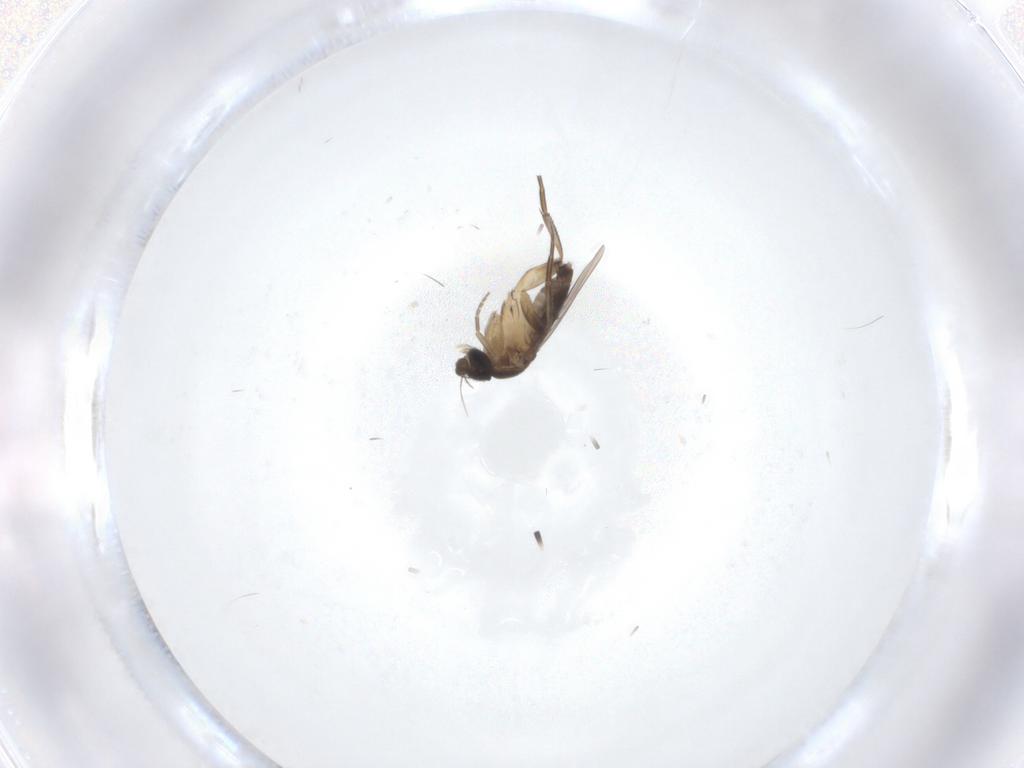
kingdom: Animalia
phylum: Arthropoda
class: Insecta
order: Diptera
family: Phoridae
